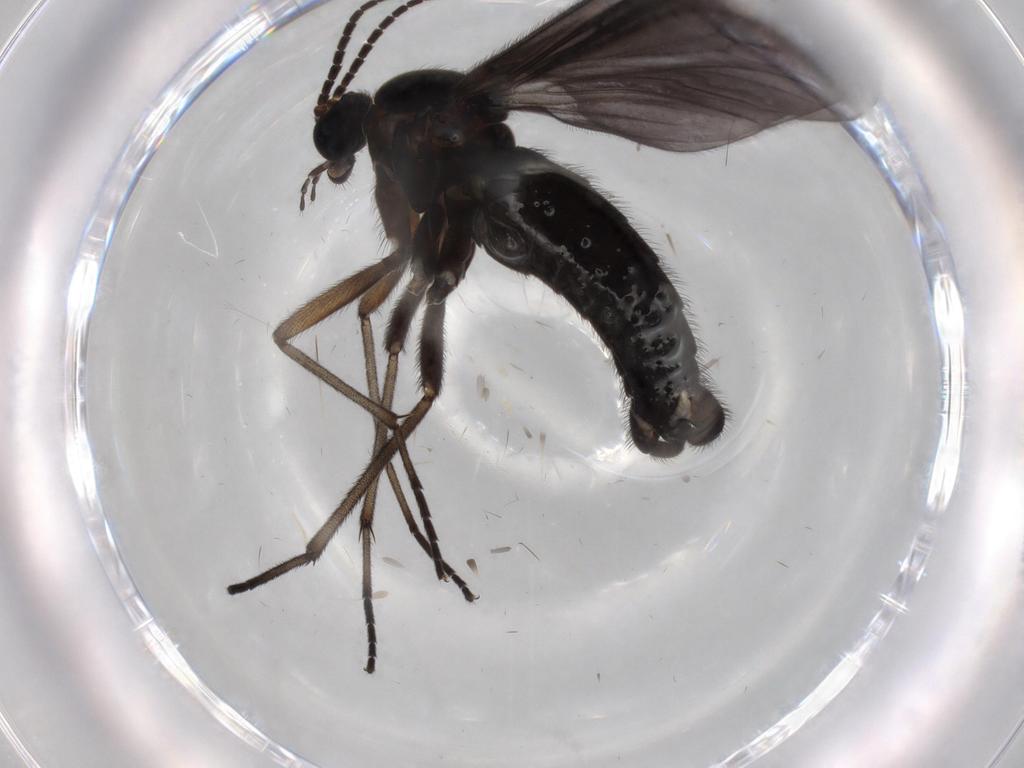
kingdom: Animalia
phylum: Arthropoda
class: Insecta
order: Diptera
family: Sciaridae
